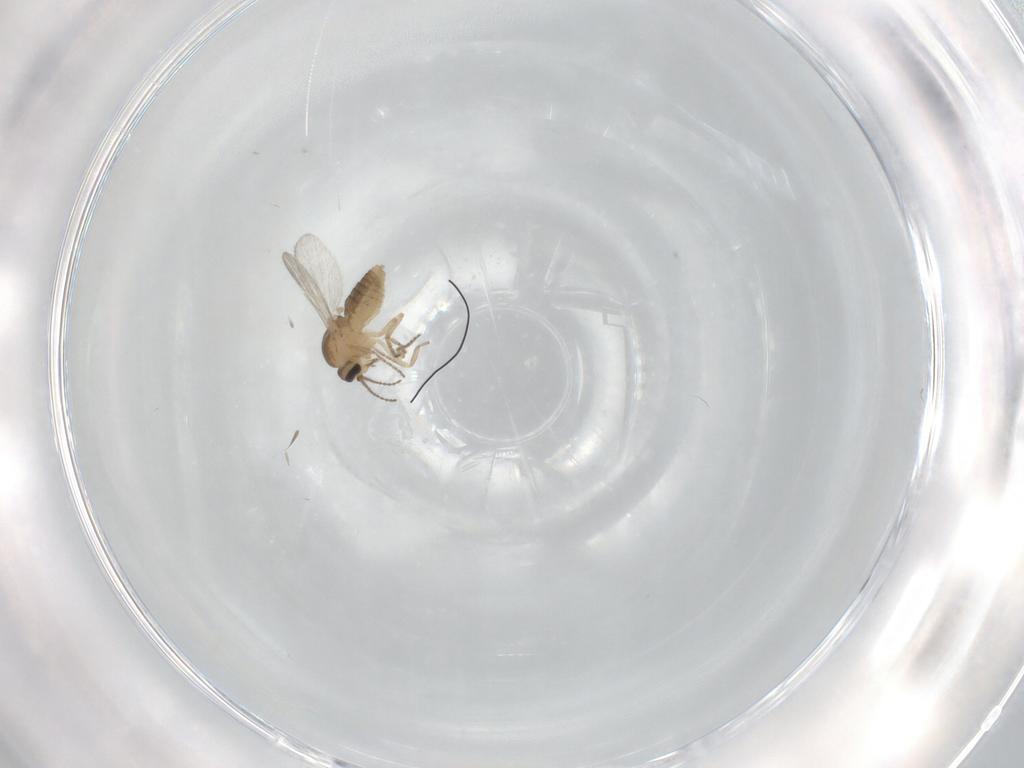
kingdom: Animalia
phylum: Arthropoda
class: Insecta
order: Diptera
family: Ceratopogonidae
